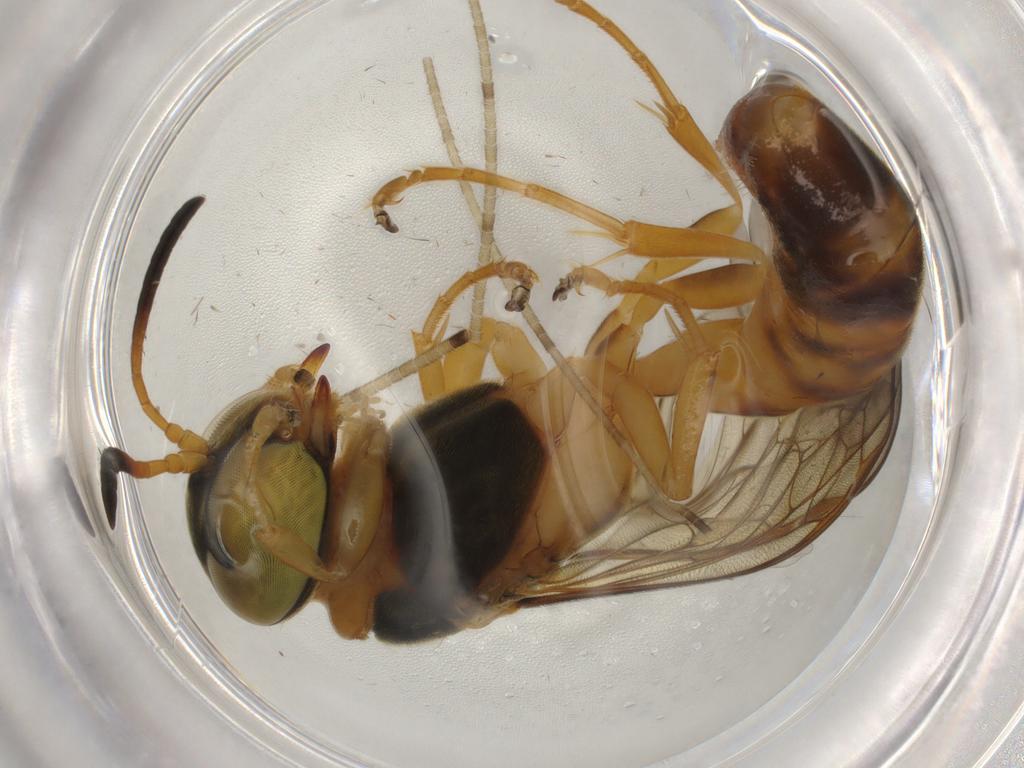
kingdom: Animalia
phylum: Arthropoda
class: Insecta
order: Hymenoptera
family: Crabronidae
